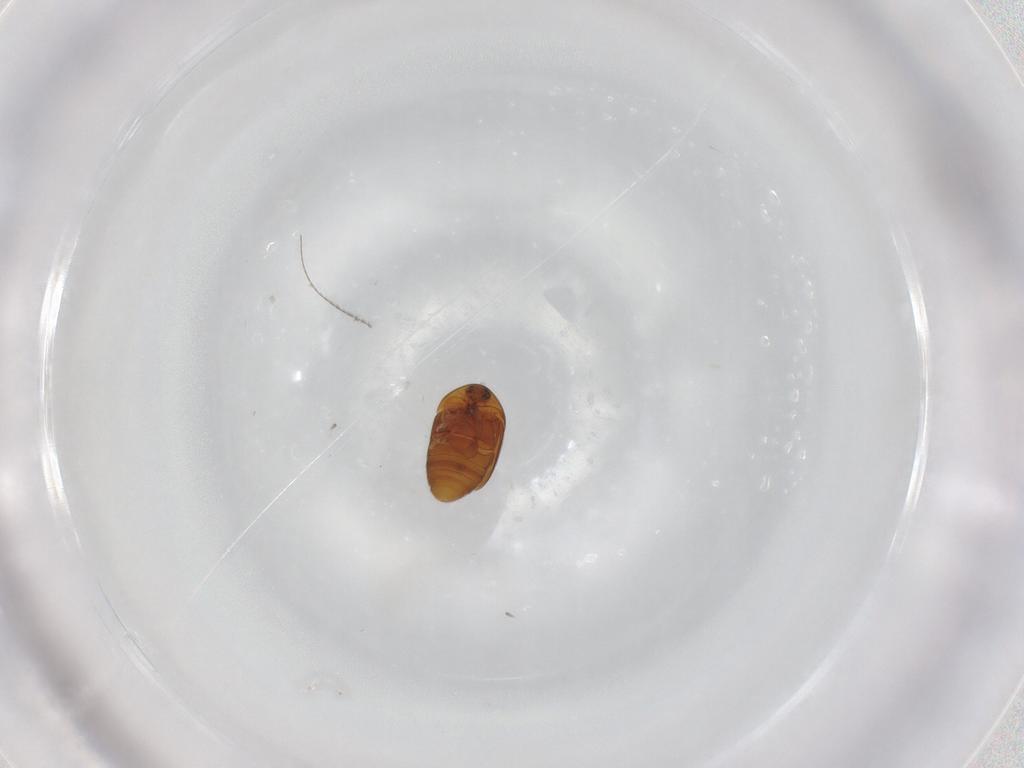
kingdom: Animalia
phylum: Arthropoda
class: Insecta
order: Coleoptera
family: Corylophidae
